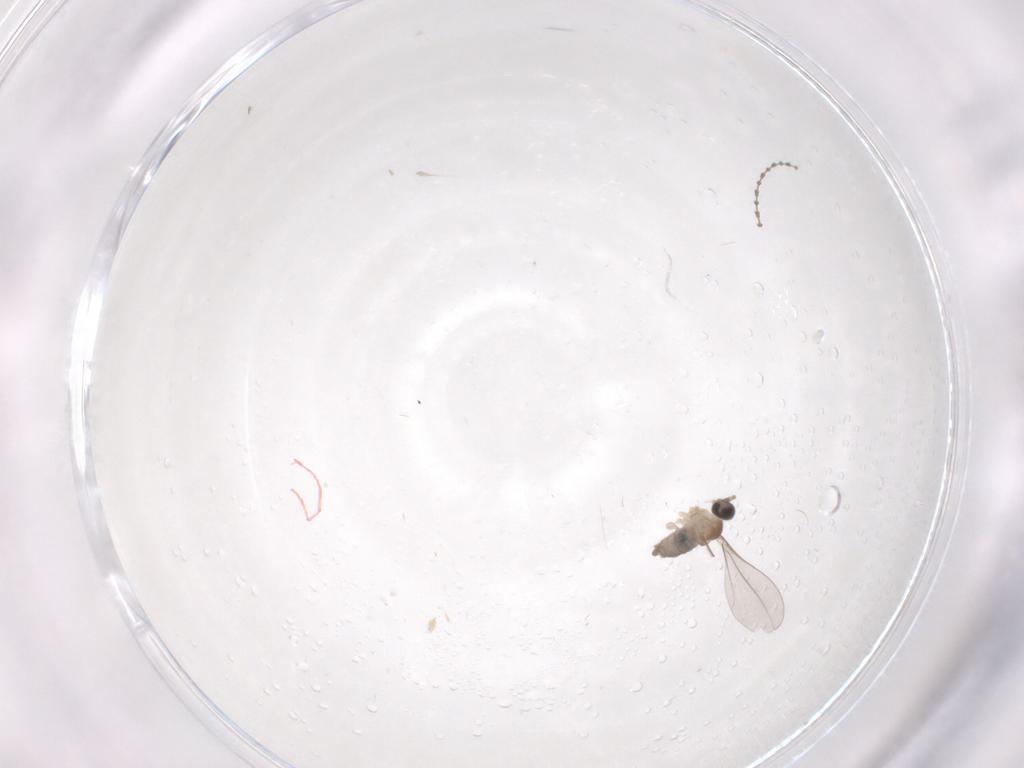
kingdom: Animalia
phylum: Arthropoda
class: Insecta
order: Diptera
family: Cecidomyiidae
